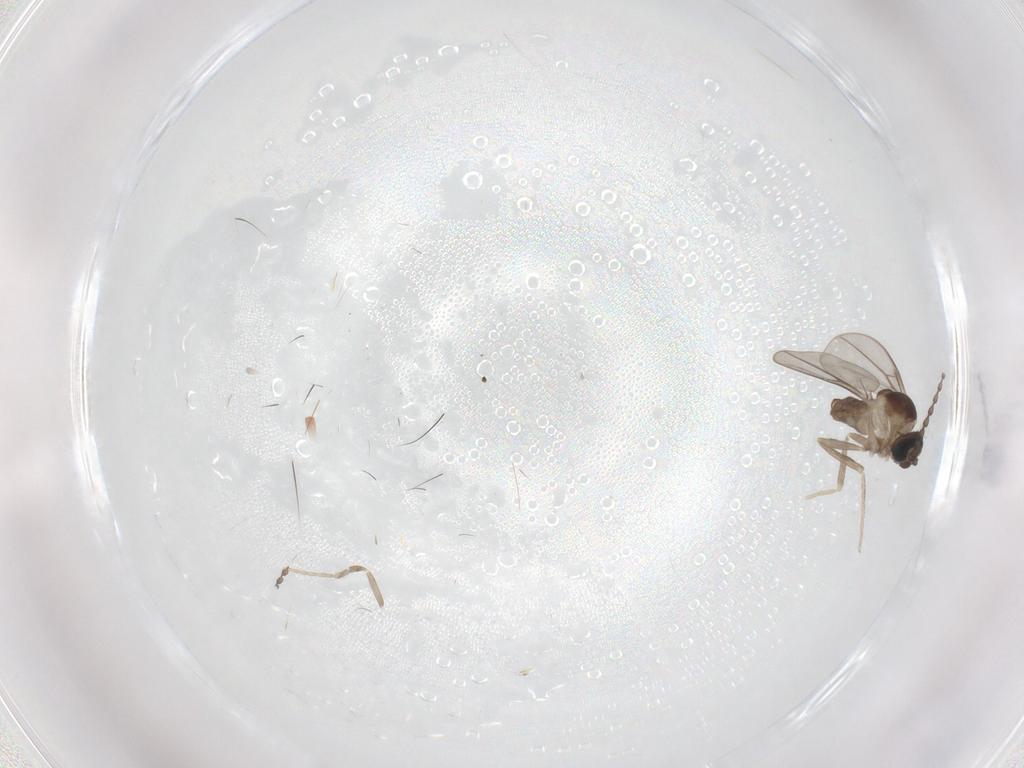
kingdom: Animalia
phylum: Arthropoda
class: Insecta
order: Diptera
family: Cecidomyiidae
